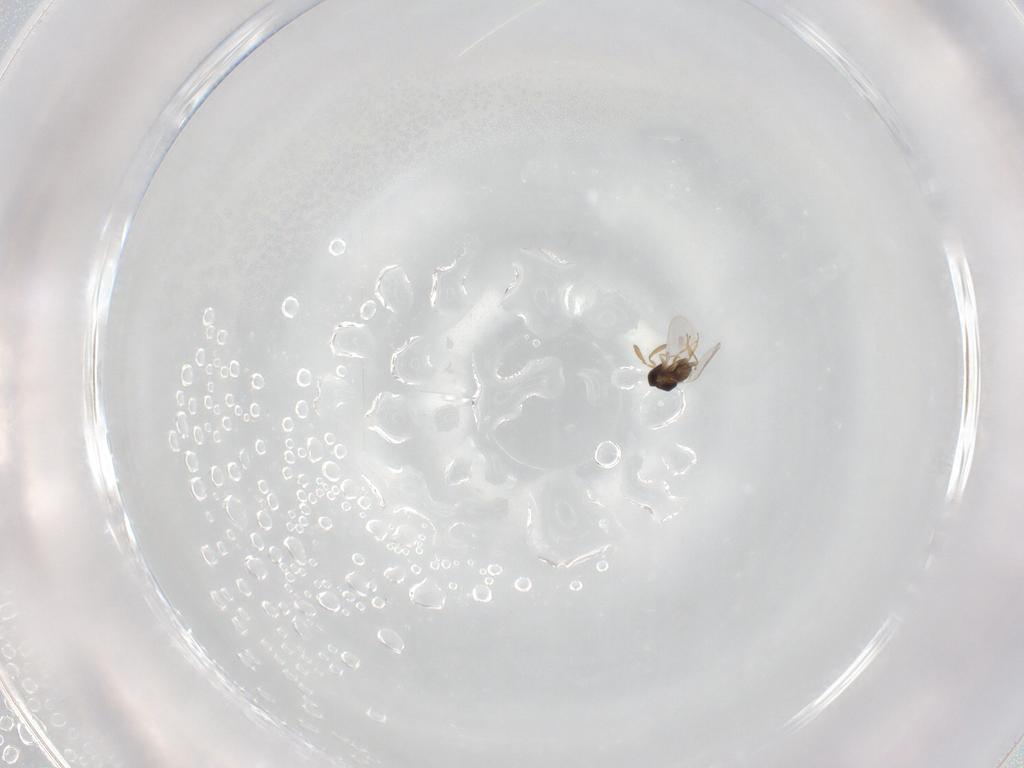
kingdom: Animalia
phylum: Arthropoda
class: Insecta
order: Hymenoptera
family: Encyrtidae
